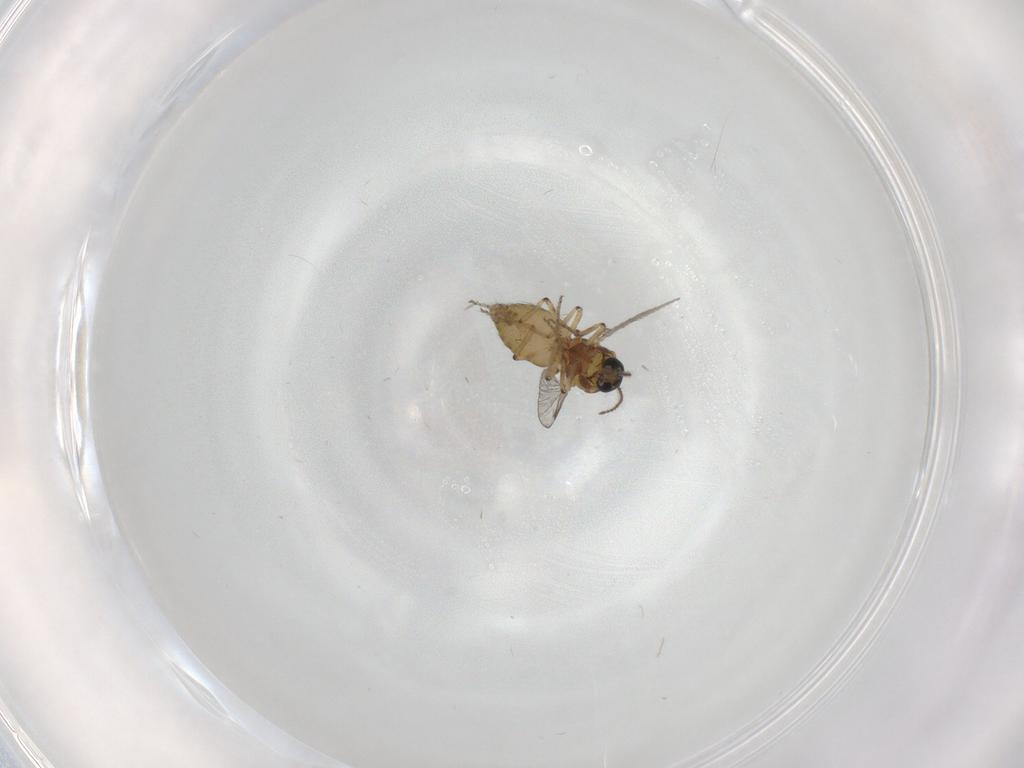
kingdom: Animalia
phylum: Arthropoda
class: Insecta
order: Diptera
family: Ceratopogonidae
